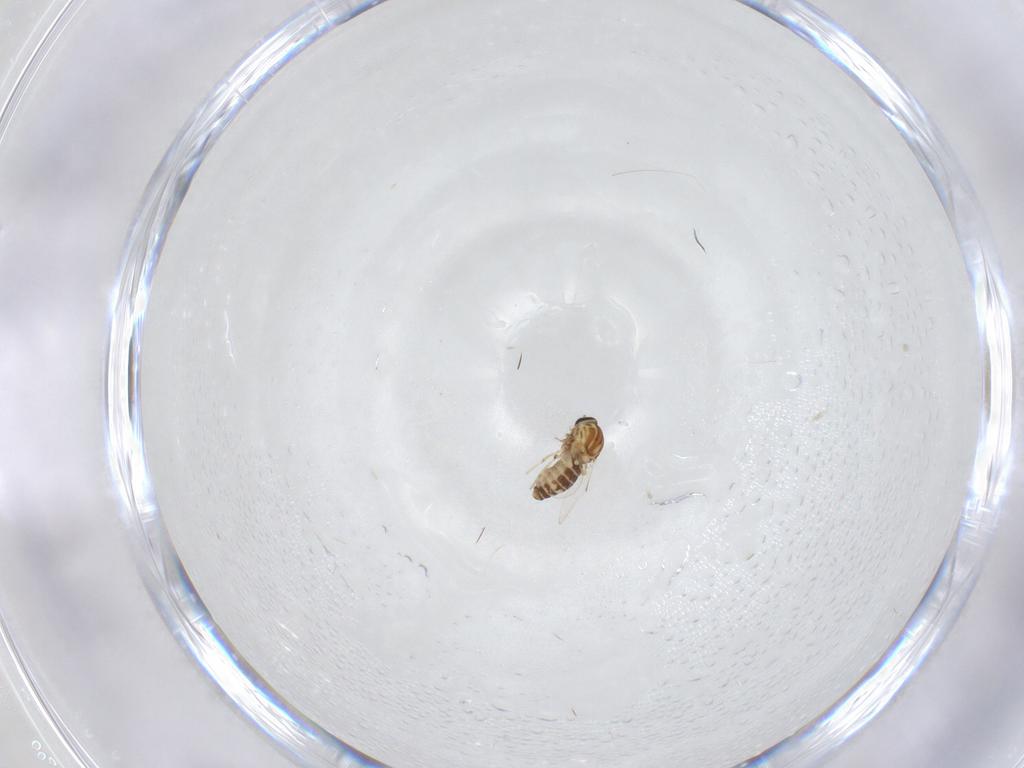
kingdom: Animalia
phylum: Arthropoda
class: Insecta
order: Diptera
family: Ceratopogonidae
